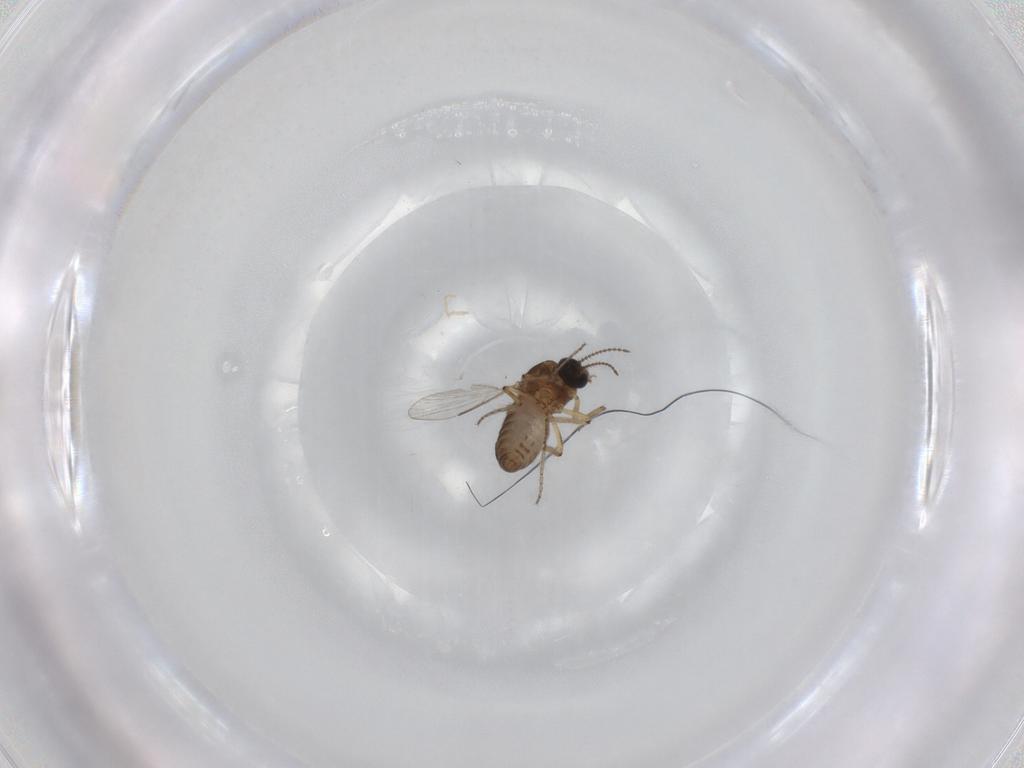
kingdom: Animalia
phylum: Arthropoda
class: Insecta
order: Diptera
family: Ceratopogonidae
